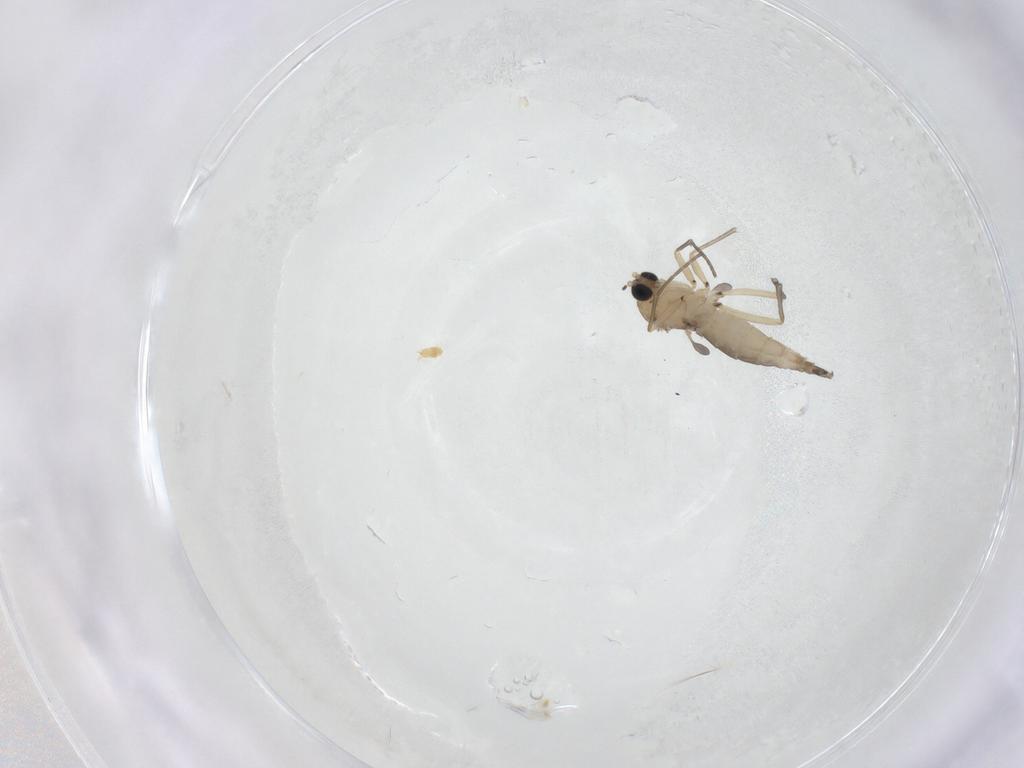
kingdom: Animalia
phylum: Arthropoda
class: Insecta
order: Diptera
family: Sciaridae
